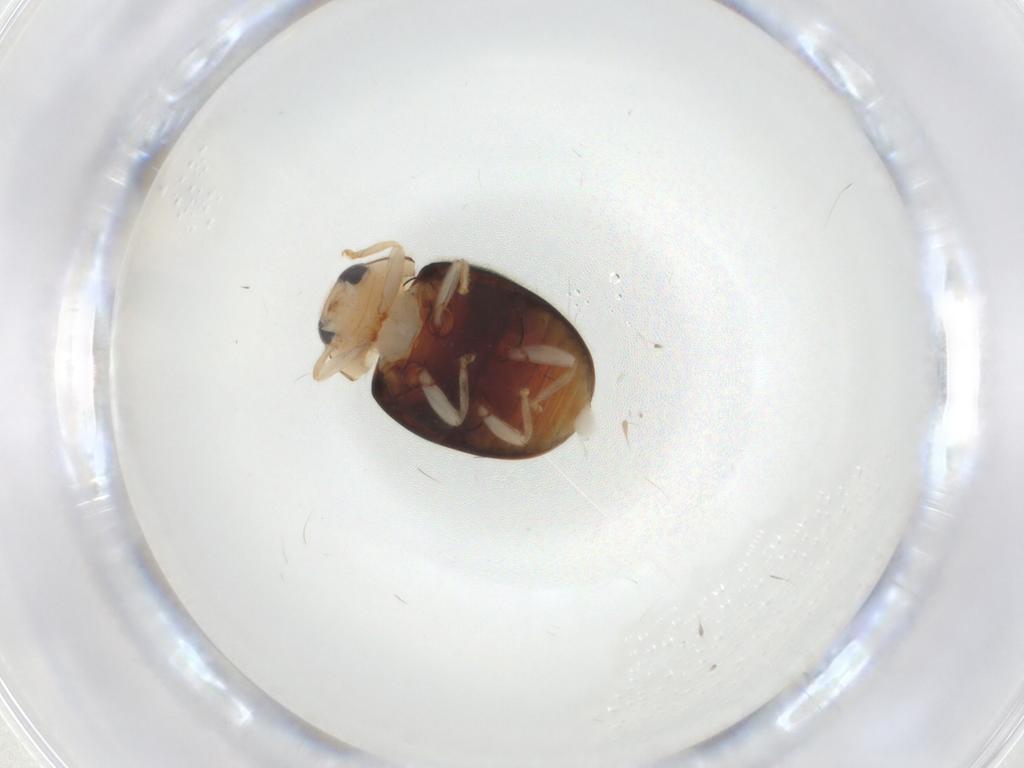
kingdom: Animalia
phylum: Arthropoda
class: Insecta
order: Coleoptera
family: Coccinellidae
